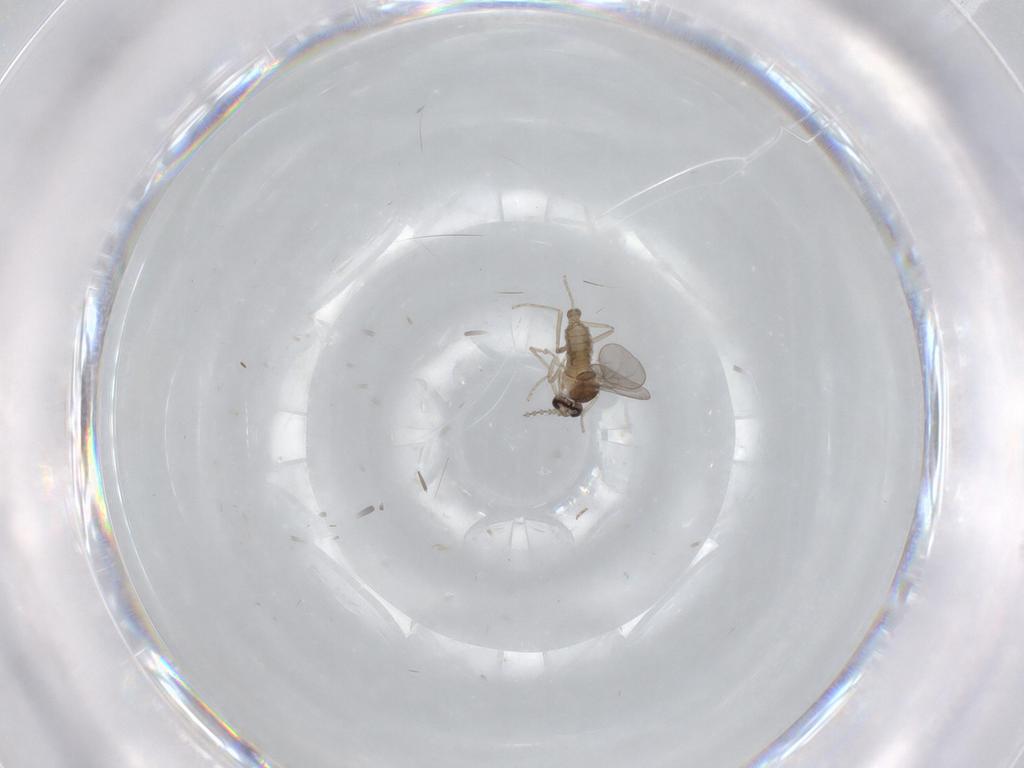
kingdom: Animalia
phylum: Arthropoda
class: Insecta
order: Diptera
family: Cecidomyiidae
